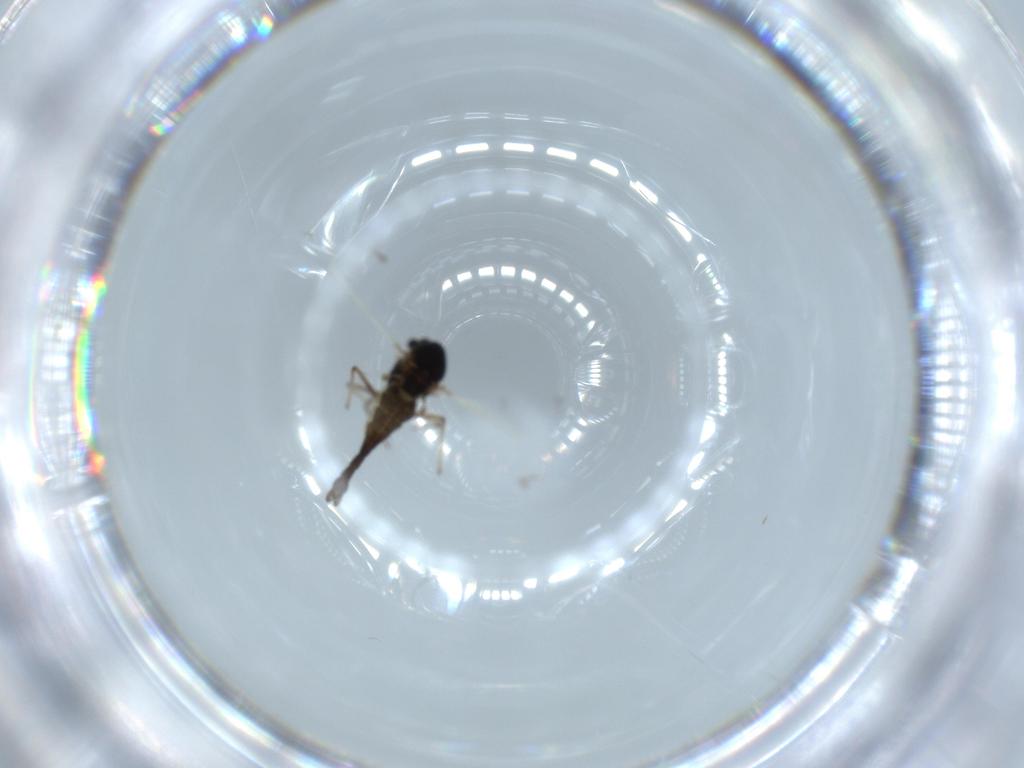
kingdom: Animalia
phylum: Arthropoda
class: Insecta
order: Diptera
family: Chironomidae
